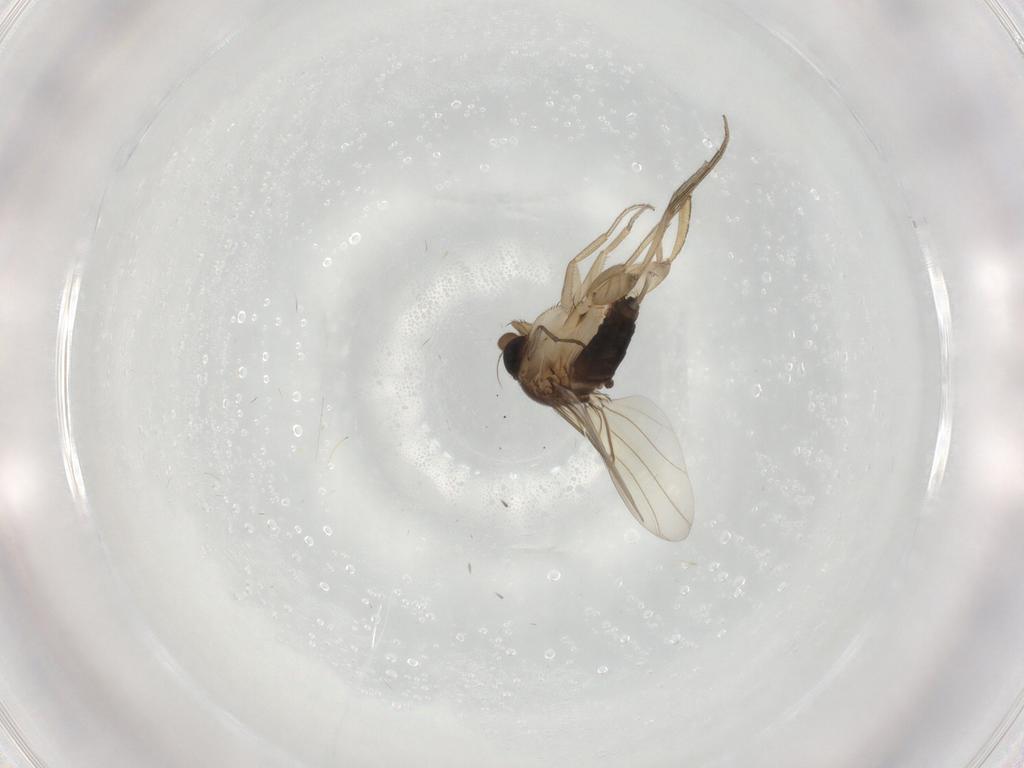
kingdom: Animalia
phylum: Arthropoda
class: Insecta
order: Diptera
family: Phoridae
